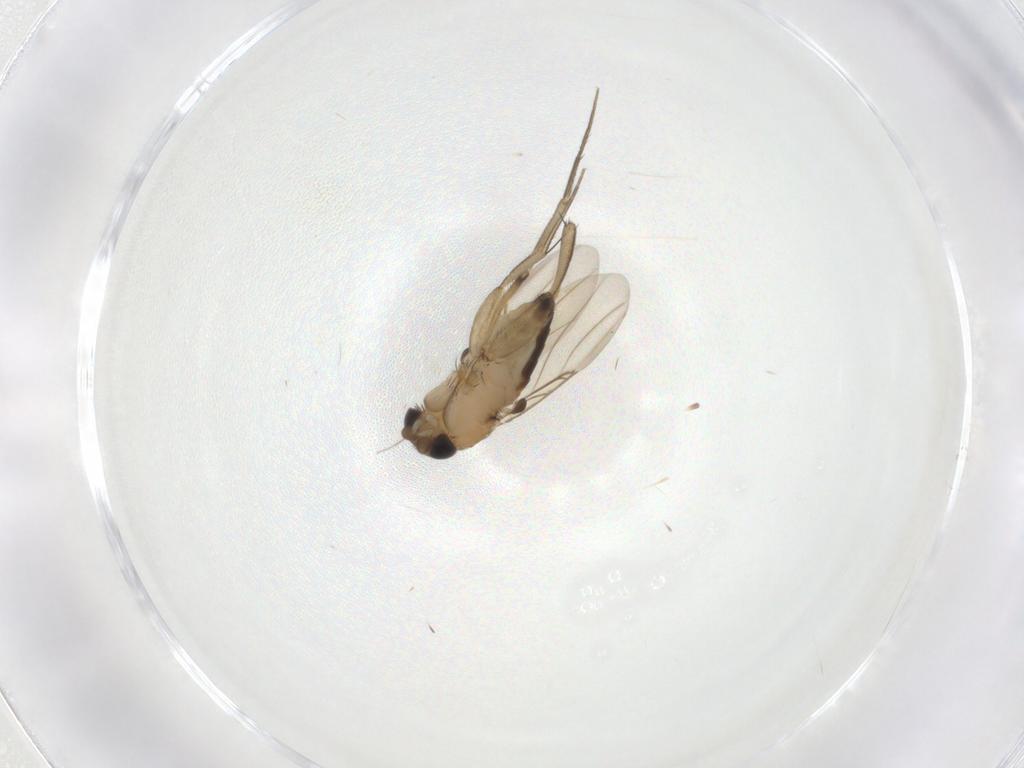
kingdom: Animalia
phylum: Arthropoda
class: Insecta
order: Diptera
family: Phoridae
